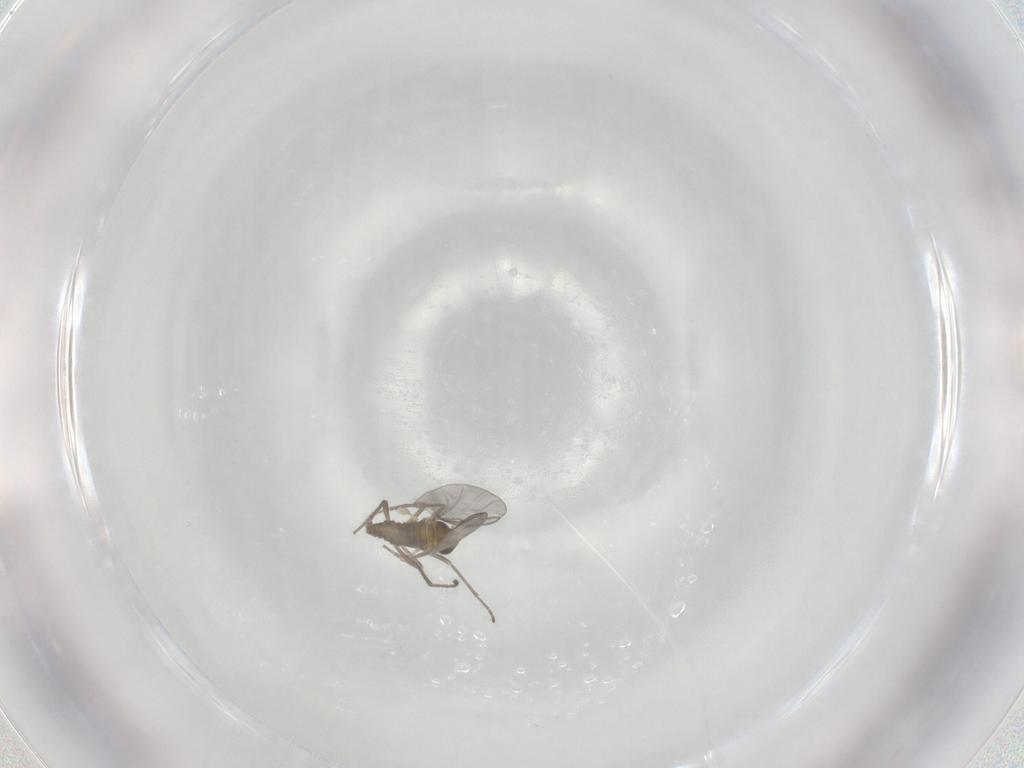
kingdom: Animalia
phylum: Arthropoda
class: Insecta
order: Diptera
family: Cecidomyiidae
